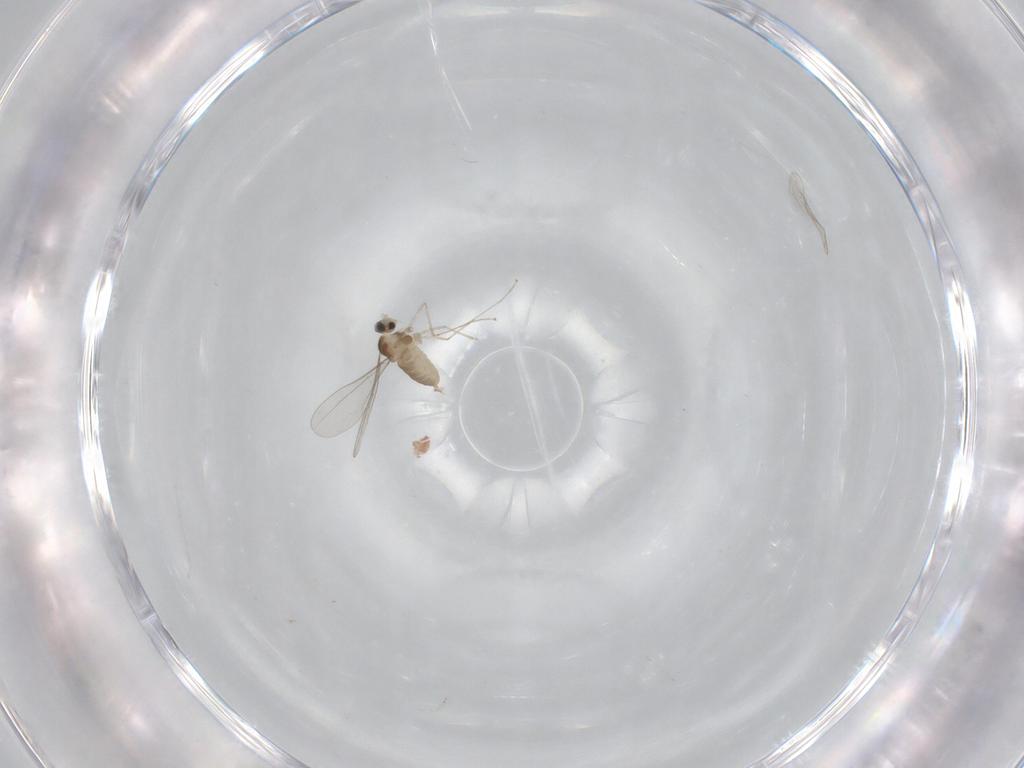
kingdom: Animalia
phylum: Arthropoda
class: Insecta
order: Diptera
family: Cecidomyiidae
